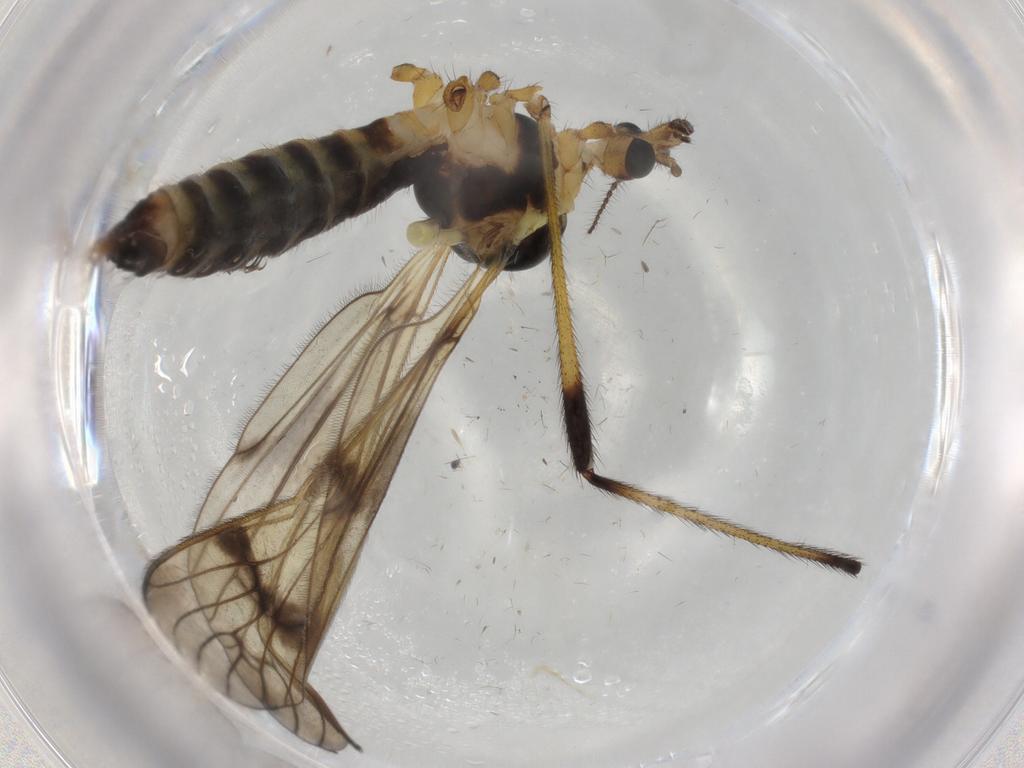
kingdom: Animalia
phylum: Arthropoda
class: Insecta
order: Diptera
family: Limoniidae
